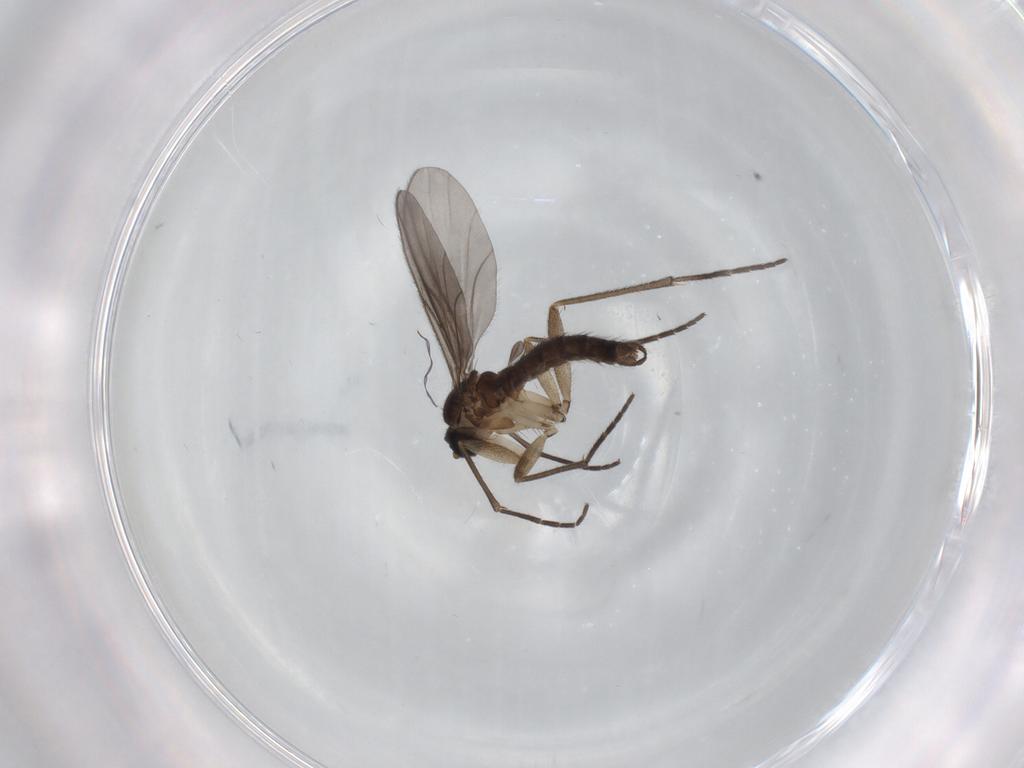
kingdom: Animalia
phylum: Arthropoda
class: Insecta
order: Diptera
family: Sciaridae
